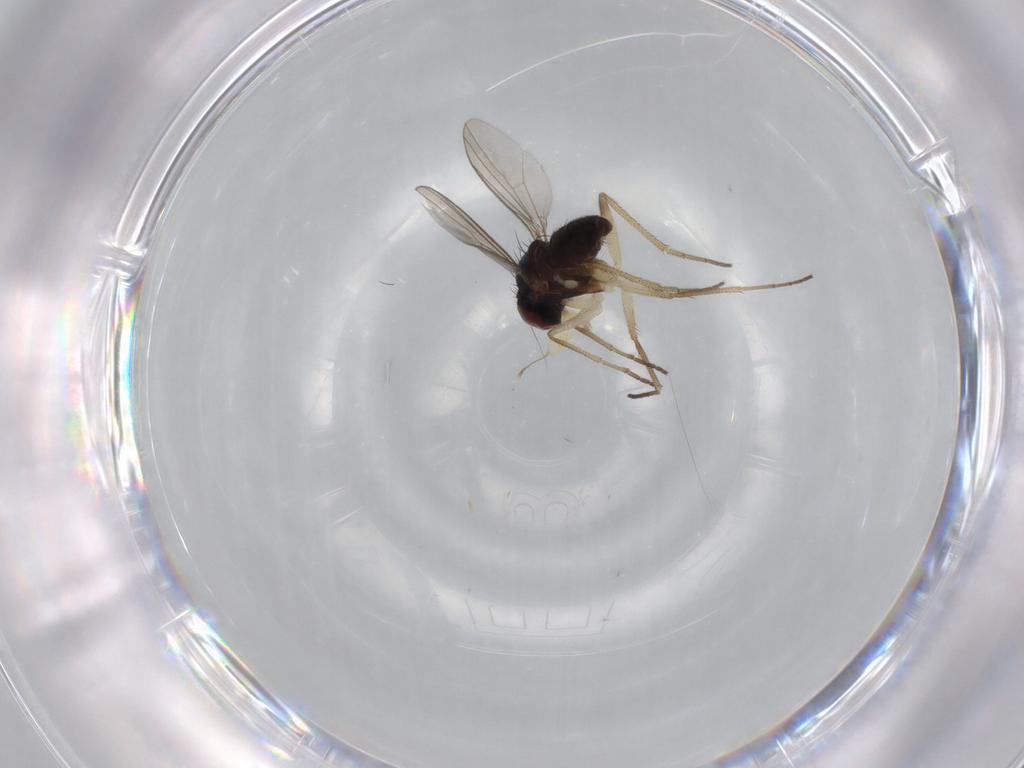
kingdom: Animalia
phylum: Arthropoda
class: Insecta
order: Diptera
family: Dolichopodidae
